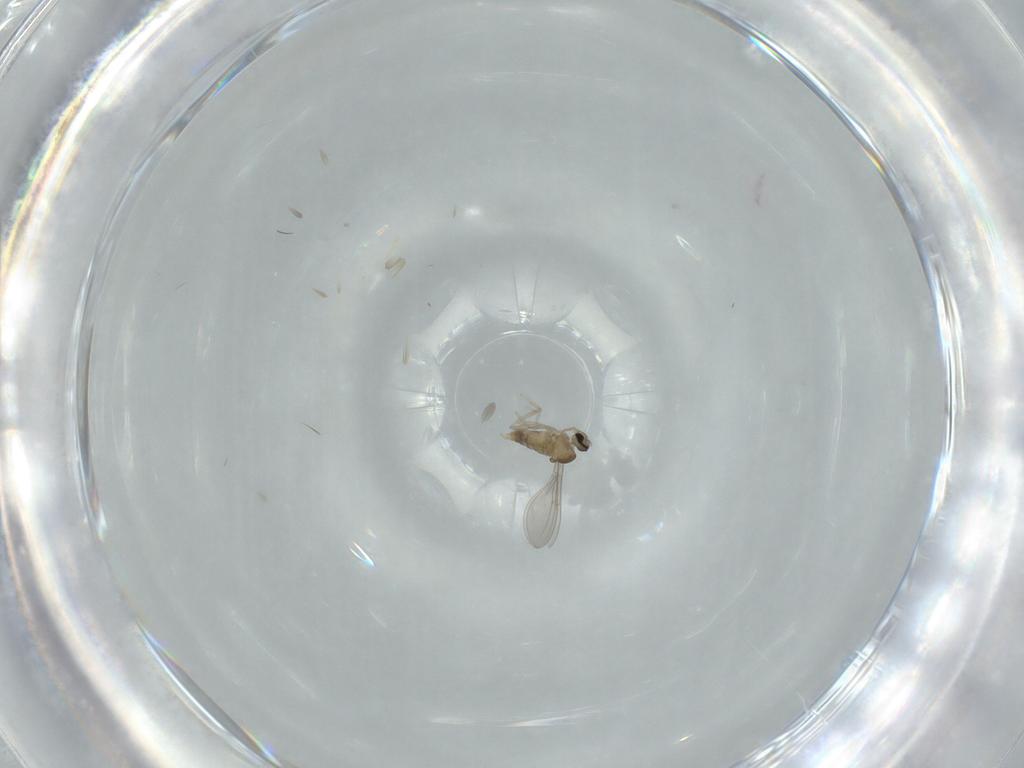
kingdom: Animalia
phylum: Arthropoda
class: Insecta
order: Diptera
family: Cecidomyiidae
